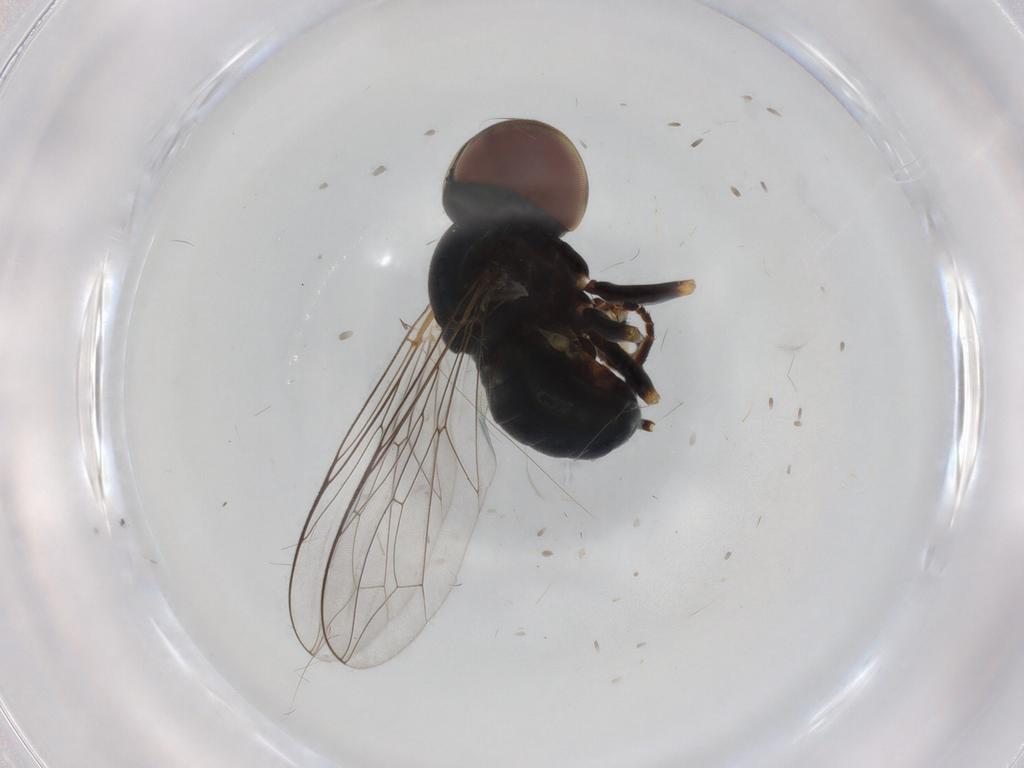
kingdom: Animalia
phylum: Arthropoda
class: Insecta
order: Diptera
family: Pipunculidae
